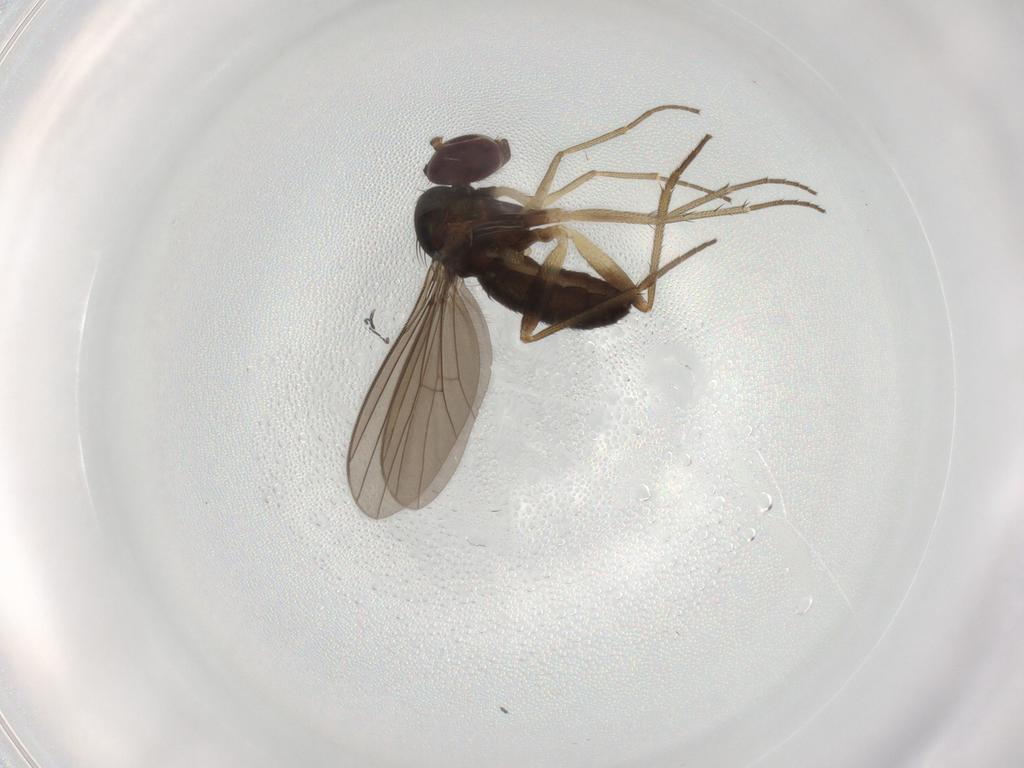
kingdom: Animalia
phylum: Arthropoda
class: Insecta
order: Diptera
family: Dolichopodidae
